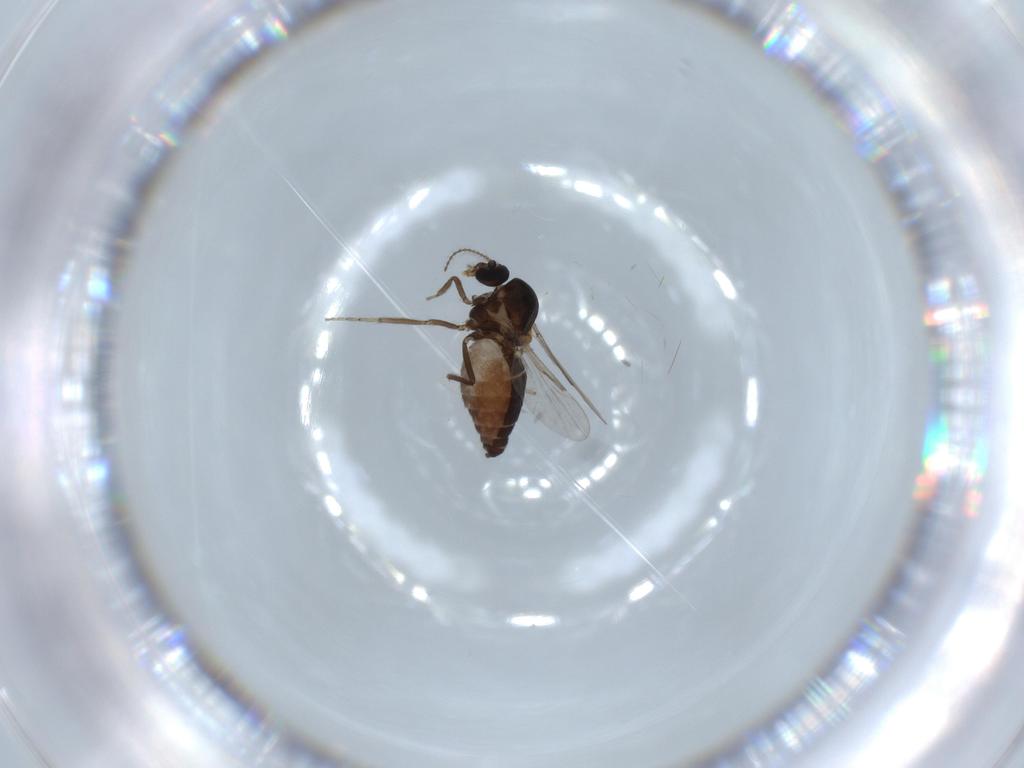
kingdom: Animalia
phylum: Arthropoda
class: Insecta
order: Diptera
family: Ceratopogonidae
